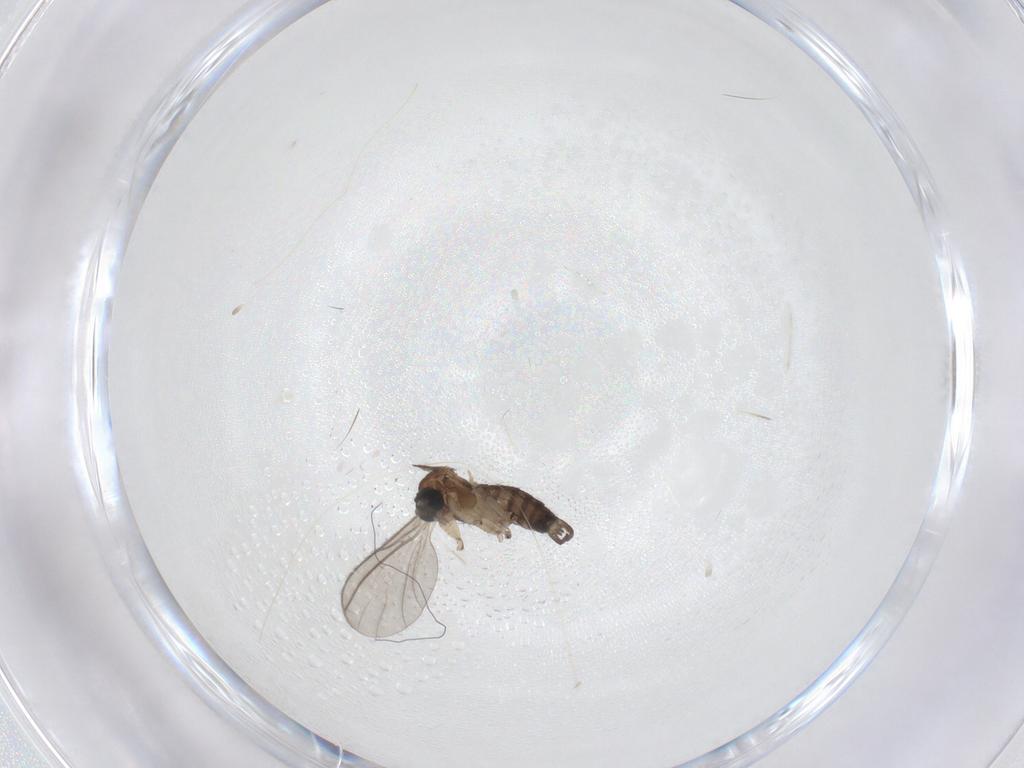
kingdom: Animalia
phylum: Arthropoda
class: Insecta
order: Diptera
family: Sciaridae
